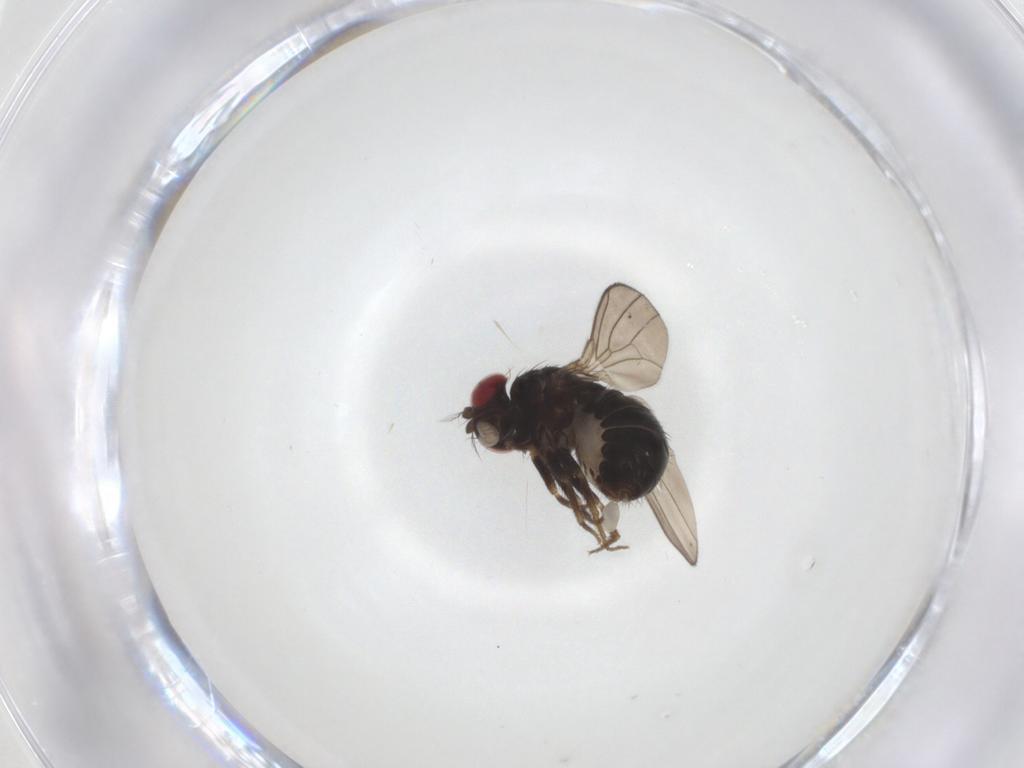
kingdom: Animalia
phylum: Arthropoda
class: Insecta
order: Diptera
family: Drosophilidae
